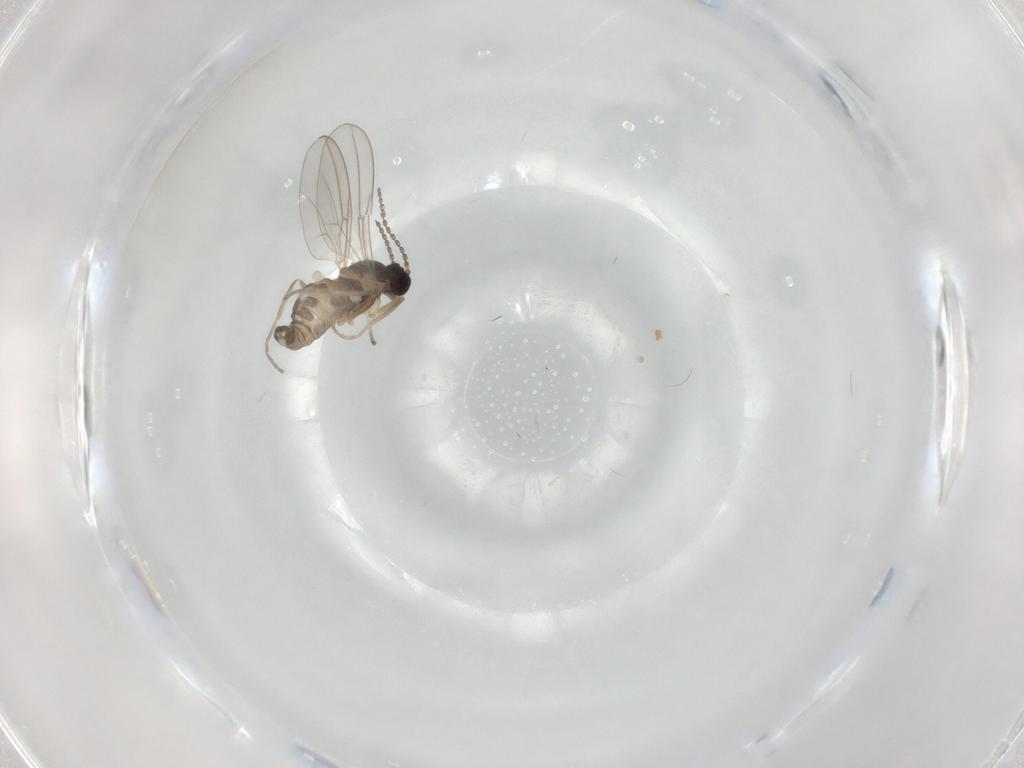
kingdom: Animalia
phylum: Arthropoda
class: Insecta
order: Diptera
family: Cecidomyiidae
